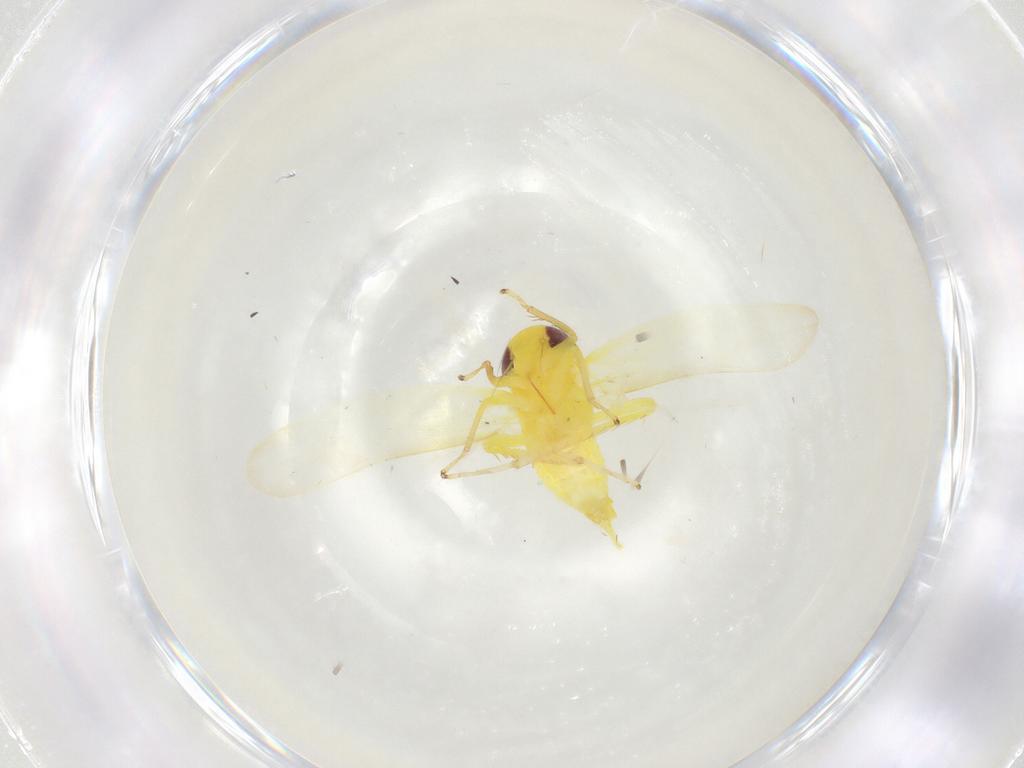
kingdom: Animalia
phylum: Arthropoda
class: Insecta
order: Hemiptera
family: Cicadellidae
